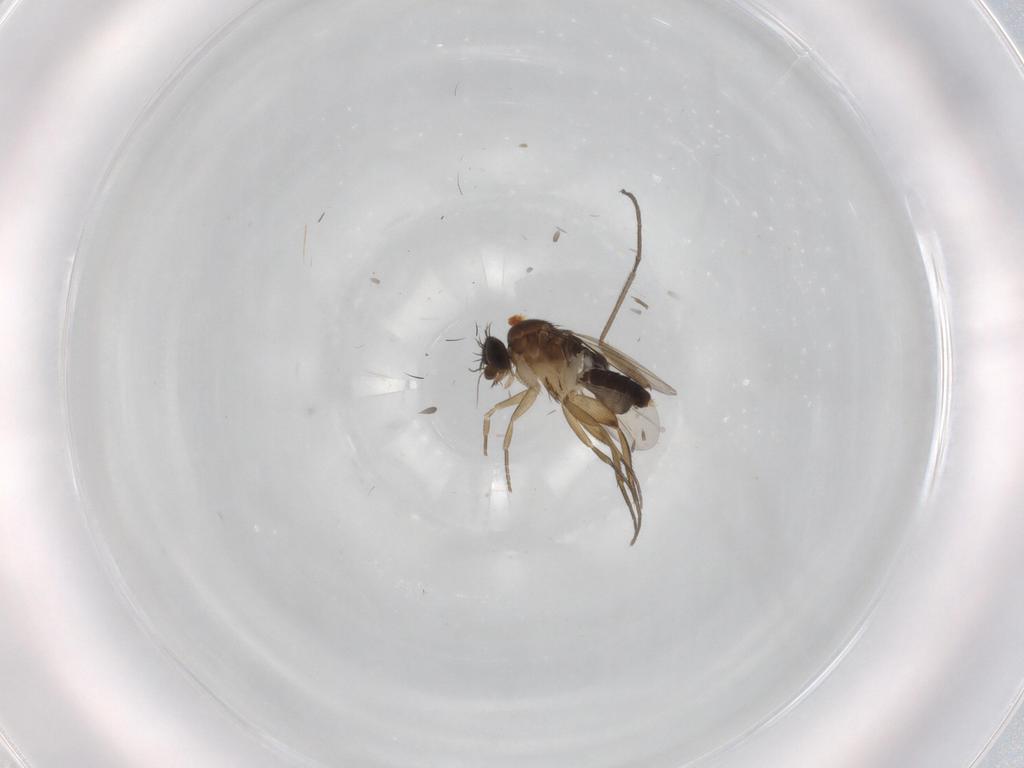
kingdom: Animalia
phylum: Arthropoda
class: Insecta
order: Diptera
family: Phoridae
